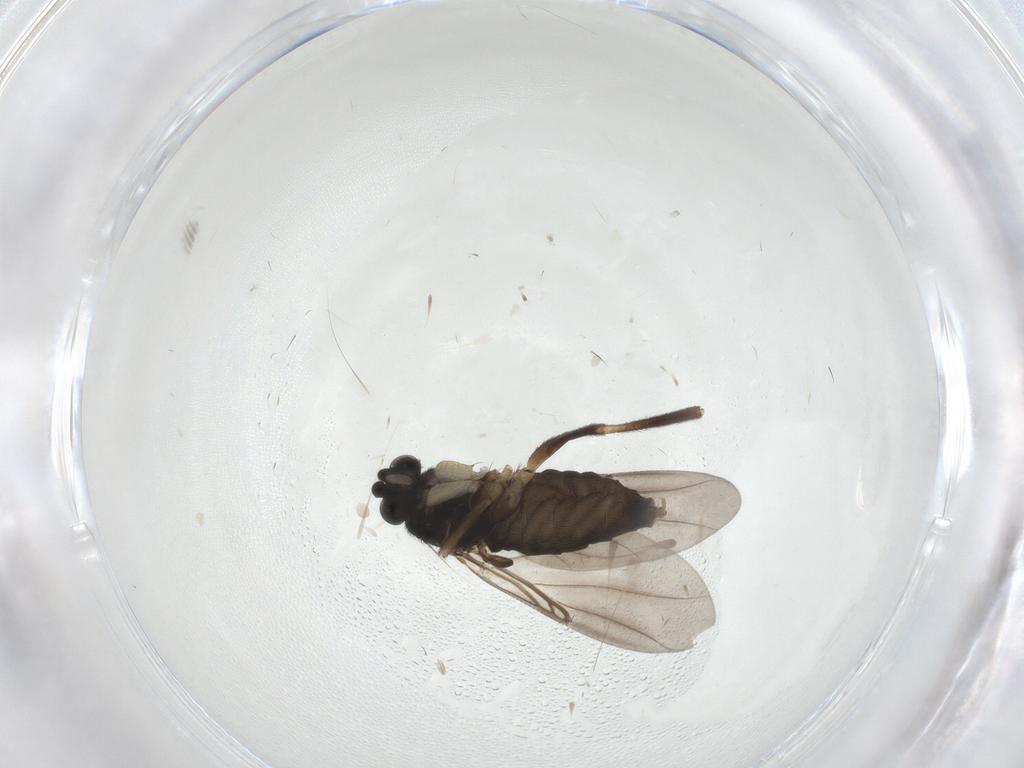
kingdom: Animalia
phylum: Arthropoda
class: Insecta
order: Diptera
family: Phoridae
